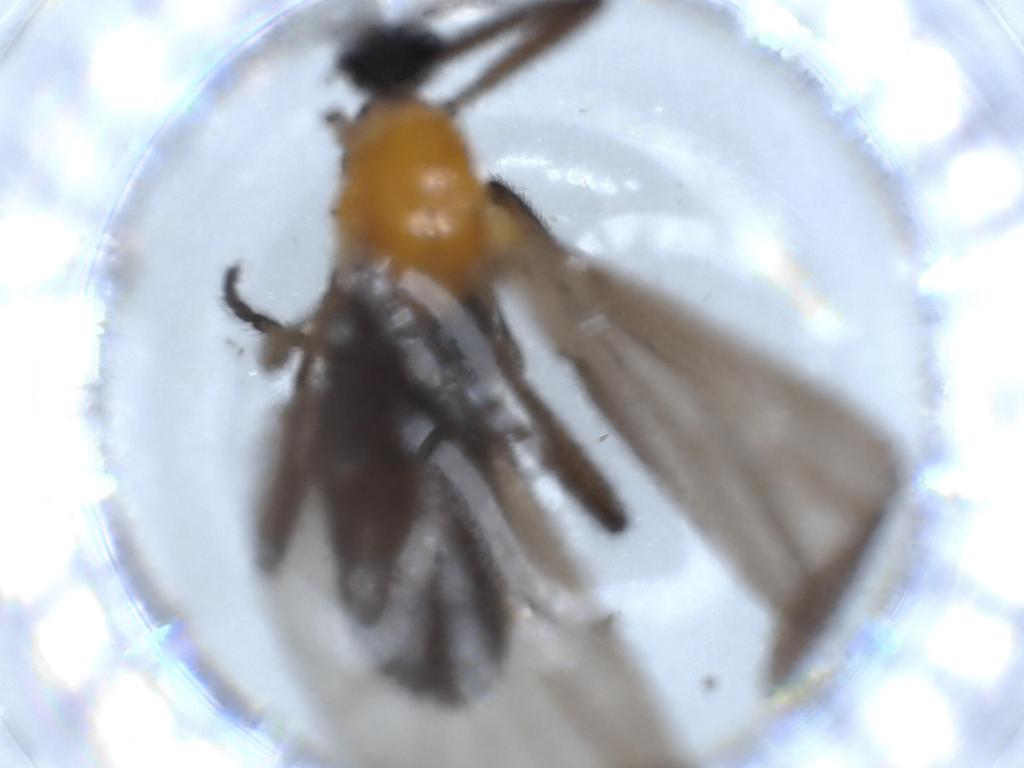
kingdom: Animalia
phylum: Arthropoda
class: Insecta
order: Diptera
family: Bibionidae
